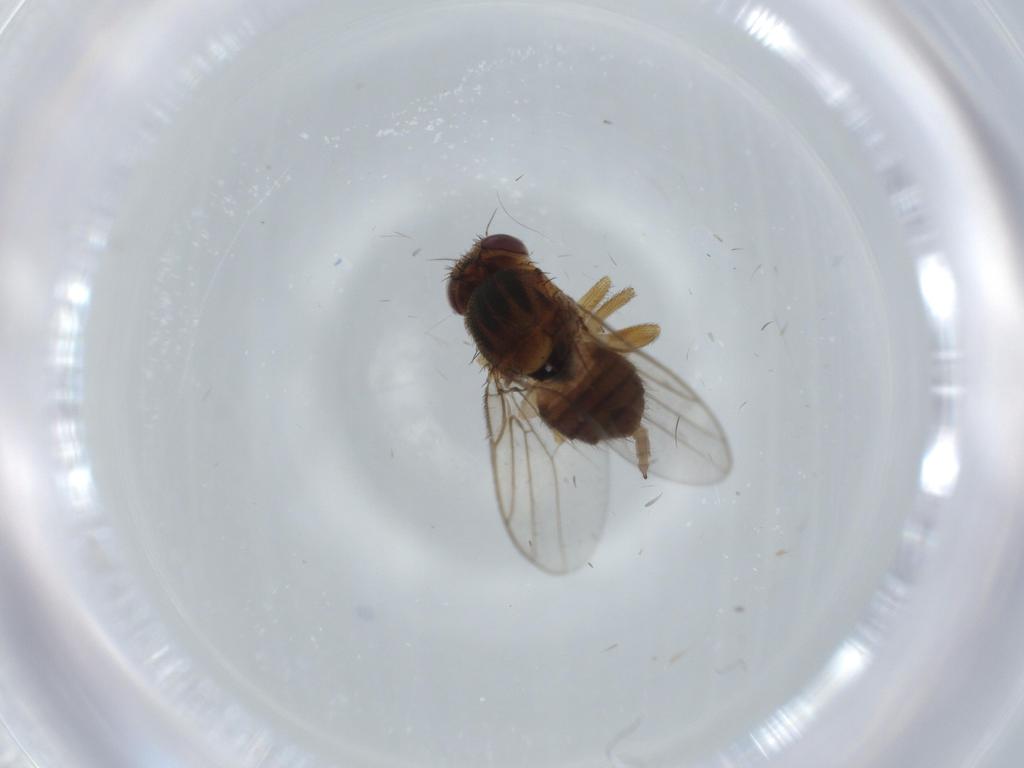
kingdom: Animalia
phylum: Arthropoda
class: Insecta
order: Diptera
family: Chloropidae
